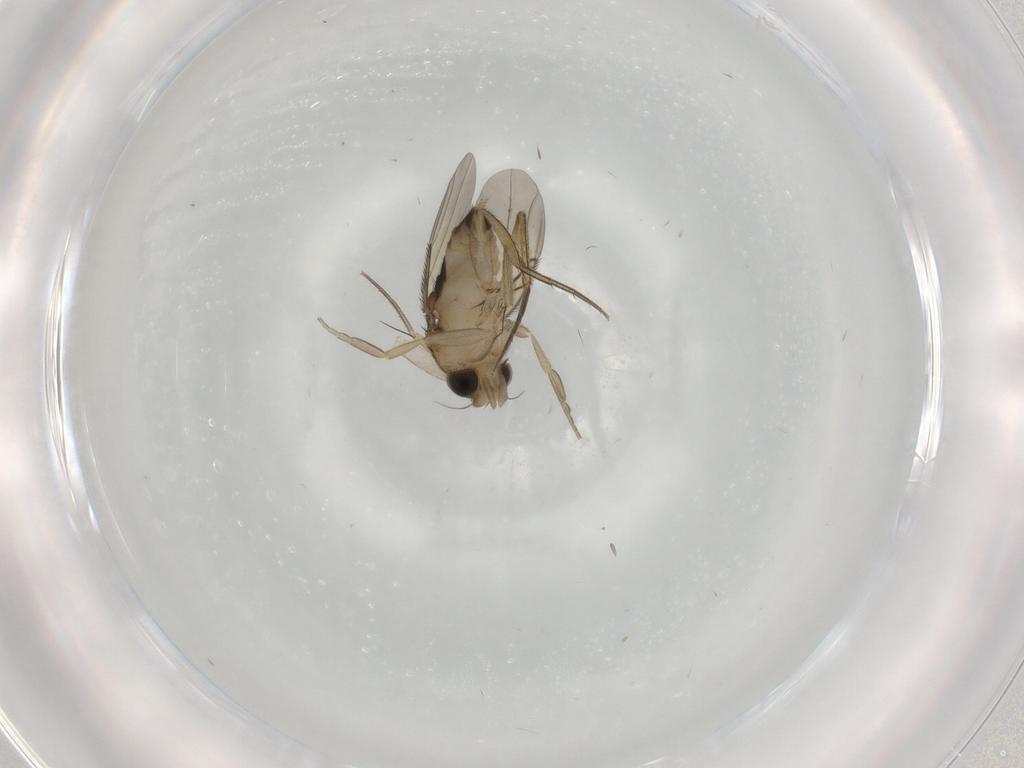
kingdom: Animalia
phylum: Arthropoda
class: Insecta
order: Diptera
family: Phoridae
